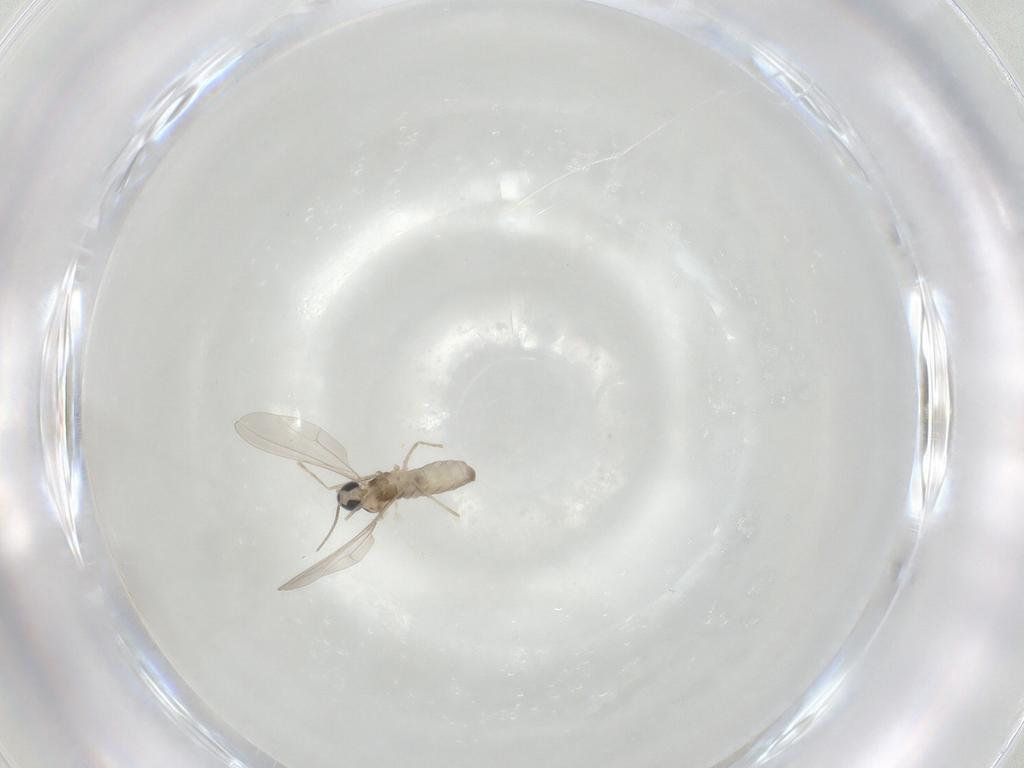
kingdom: Animalia
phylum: Arthropoda
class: Insecta
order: Diptera
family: Cecidomyiidae
